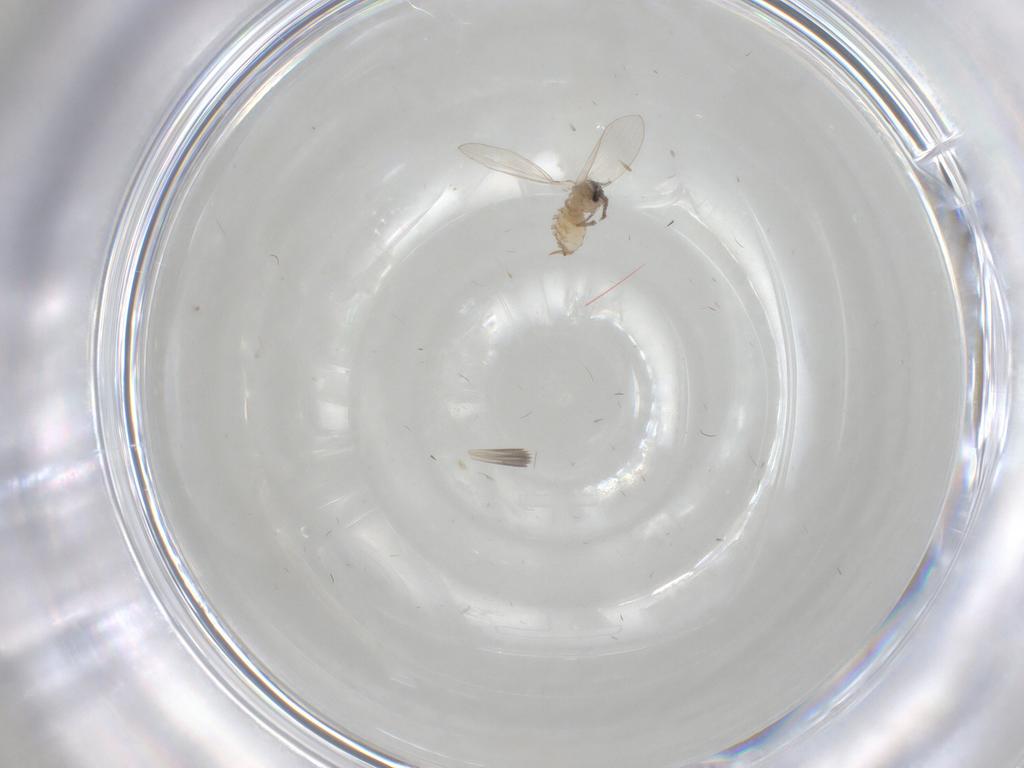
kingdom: Animalia
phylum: Arthropoda
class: Insecta
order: Diptera
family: Psychodidae
